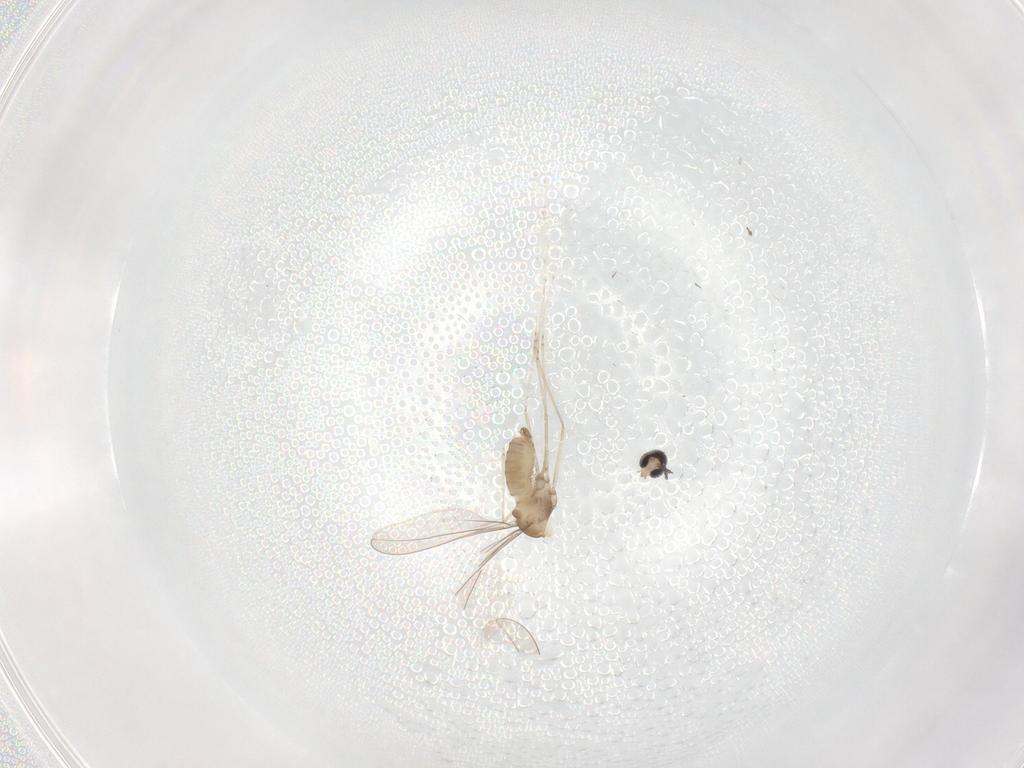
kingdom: Animalia
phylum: Arthropoda
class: Insecta
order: Diptera
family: Cecidomyiidae
